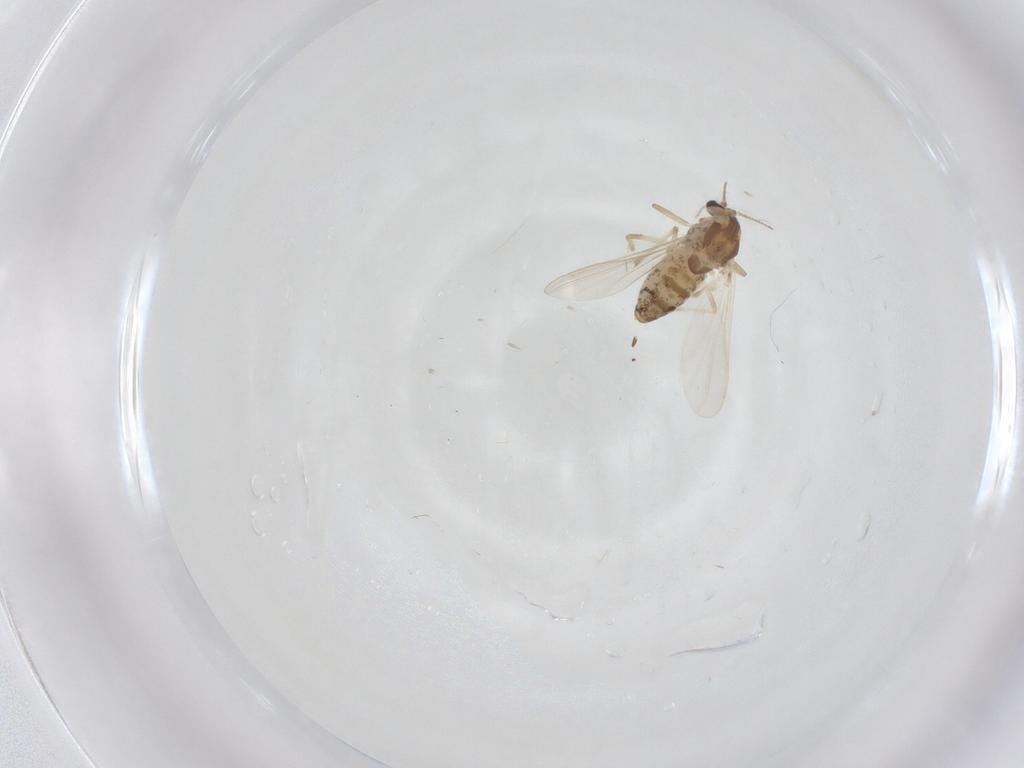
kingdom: Animalia
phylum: Arthropoda
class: Insecta
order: Diptera
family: Chironomidae
